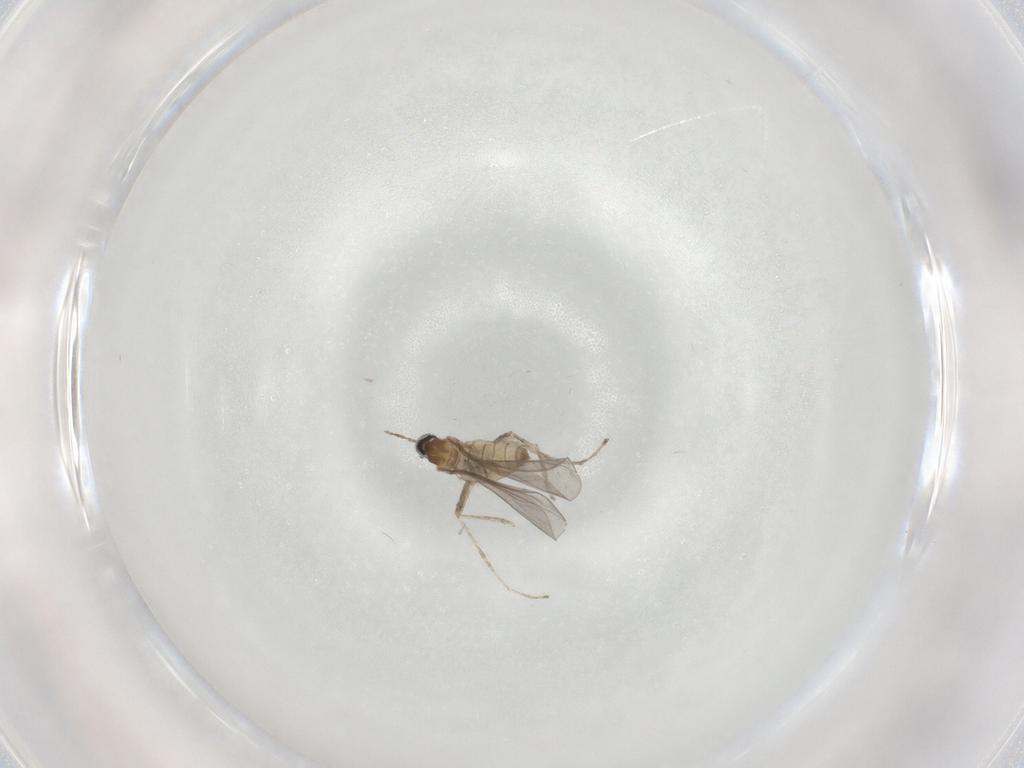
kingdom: Animalia
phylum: Arthropoda
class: Insecta
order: Diptera
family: Cecidomyiidae
